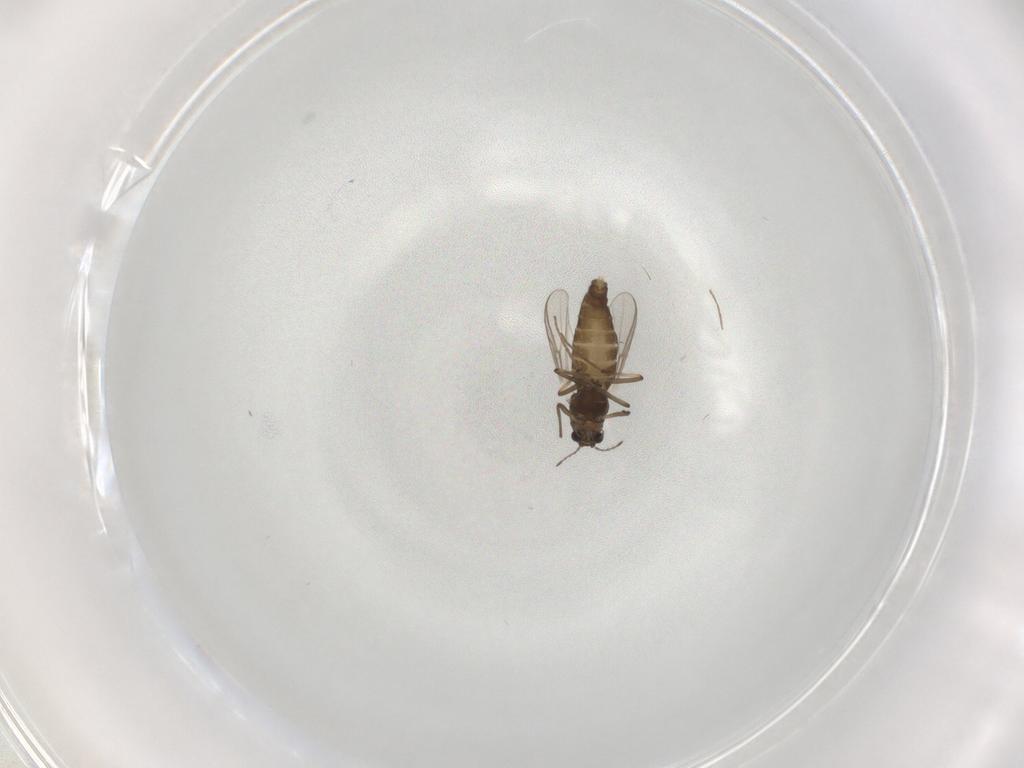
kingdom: Animalia
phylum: Arthropoda
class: Insecta
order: Diptera
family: Chironomidae
